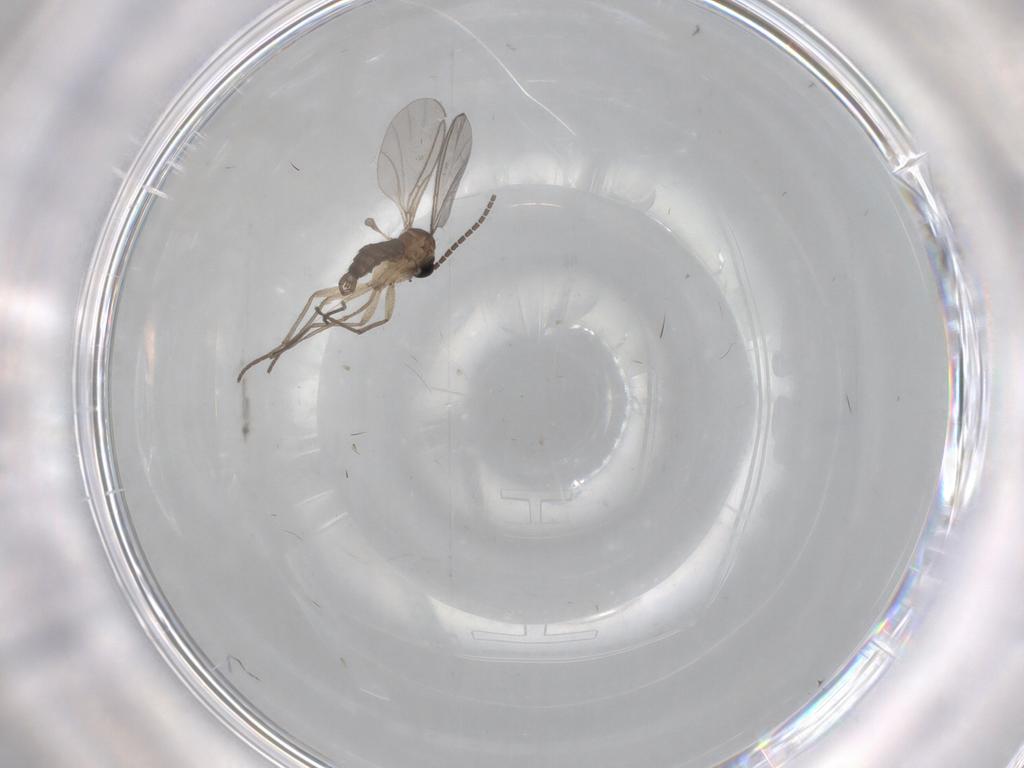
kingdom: Animalia
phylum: Arthropoda
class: Insecta
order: Diptera
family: Sciaridae
